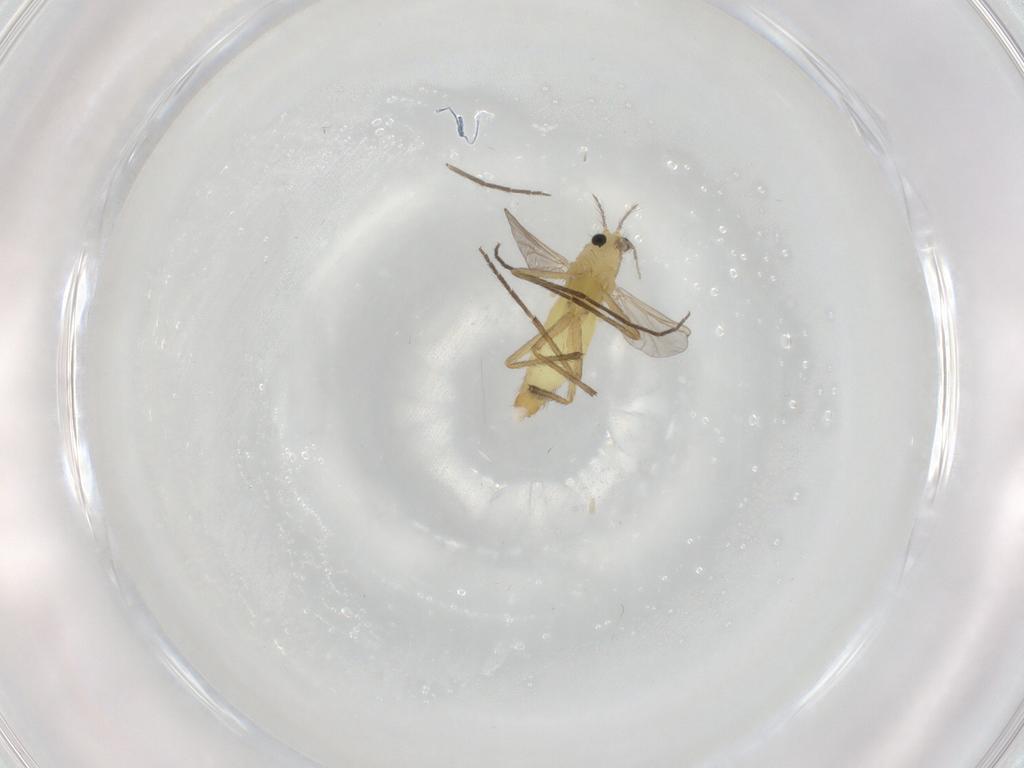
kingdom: Animalia
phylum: Arthropoda
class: Insecta
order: Diptera
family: Chironomidae
